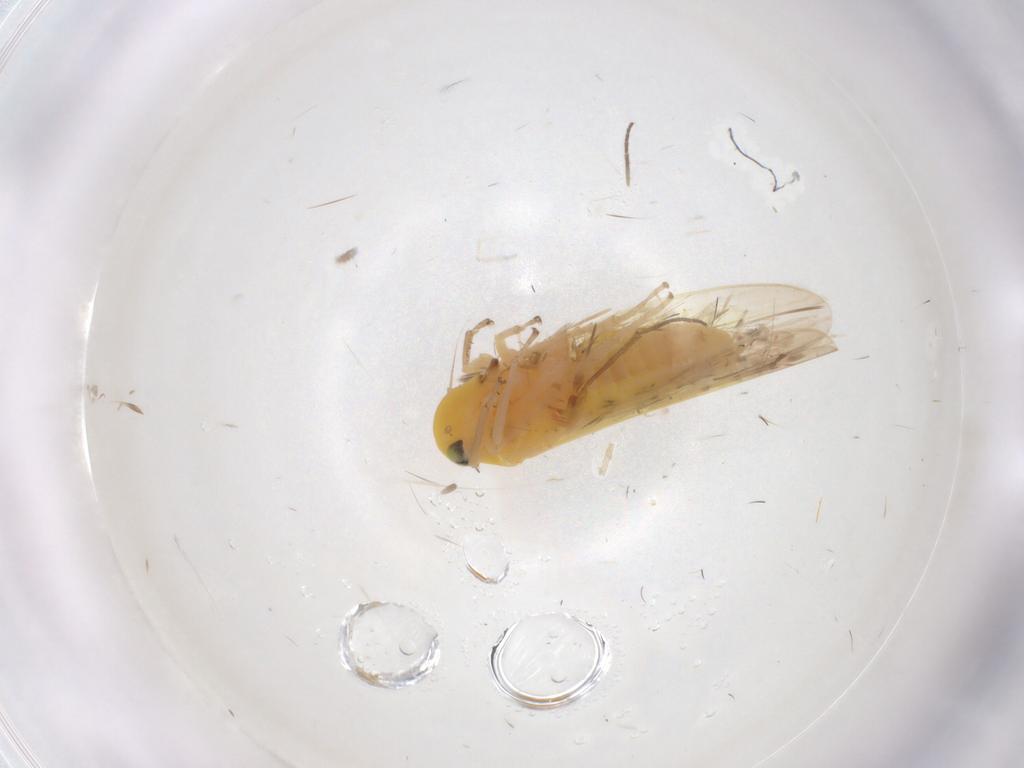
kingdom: Animalia
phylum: Arthropoda
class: Insecta
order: Hemiptera
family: Cicadellidae
